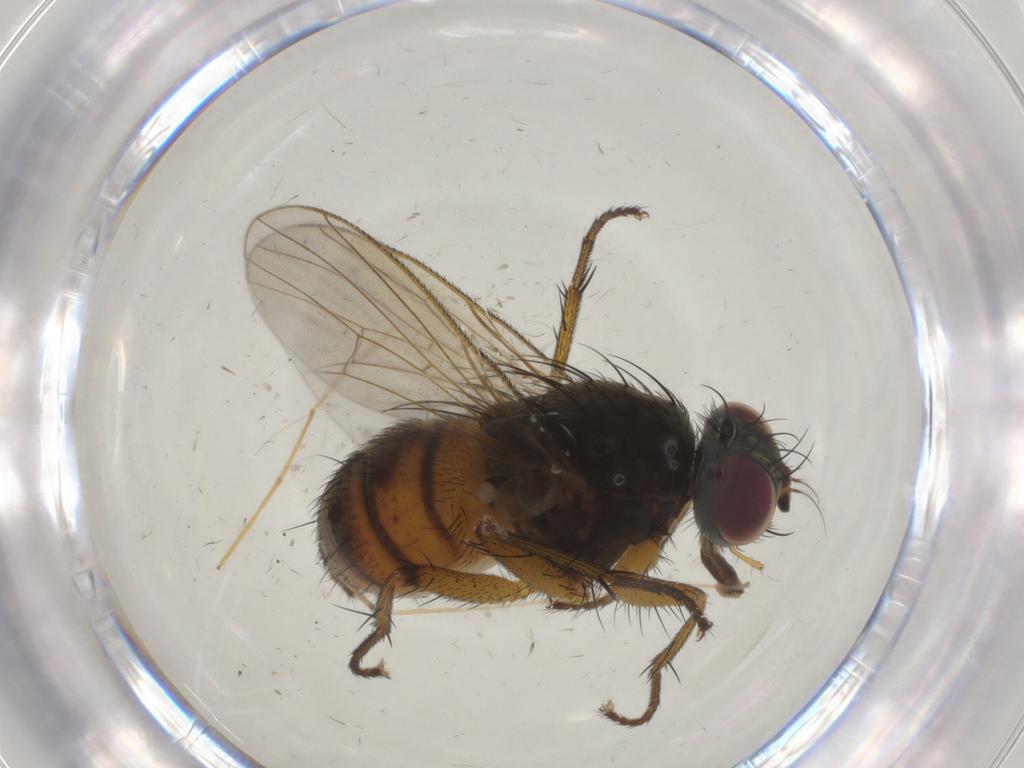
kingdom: Animalia
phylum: Arthropoda
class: Insecta
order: Diptera
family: Muscidae
